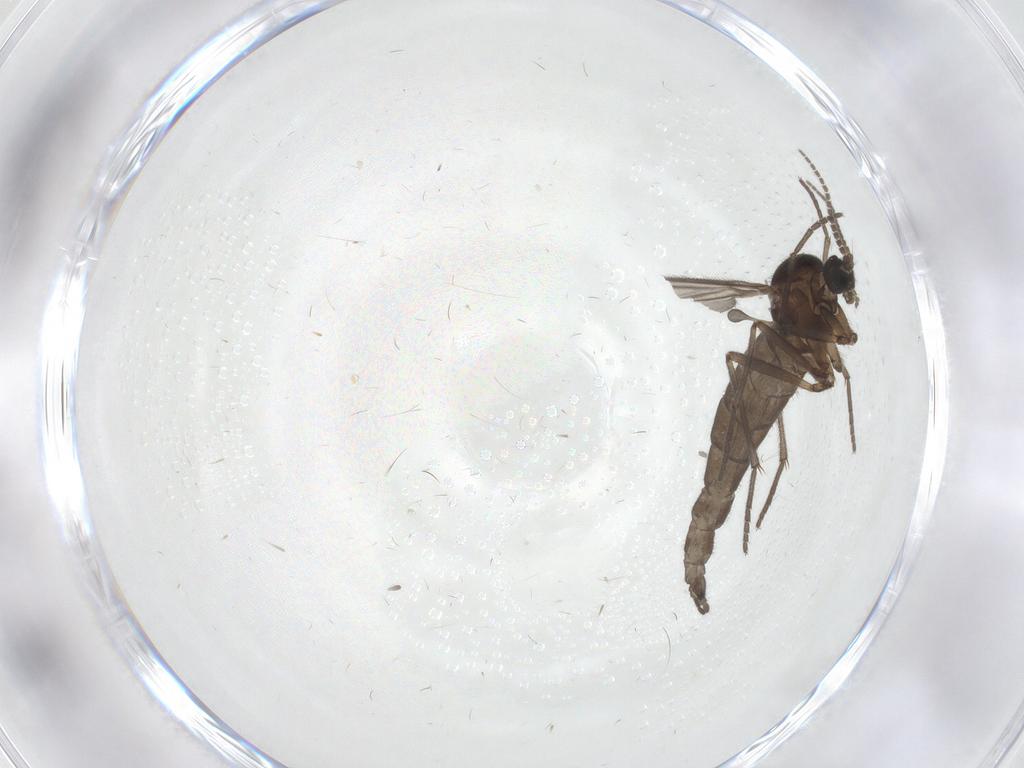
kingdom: Animalia
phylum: Arthropoda
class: Insecta
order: Diptera
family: Sciaridae
